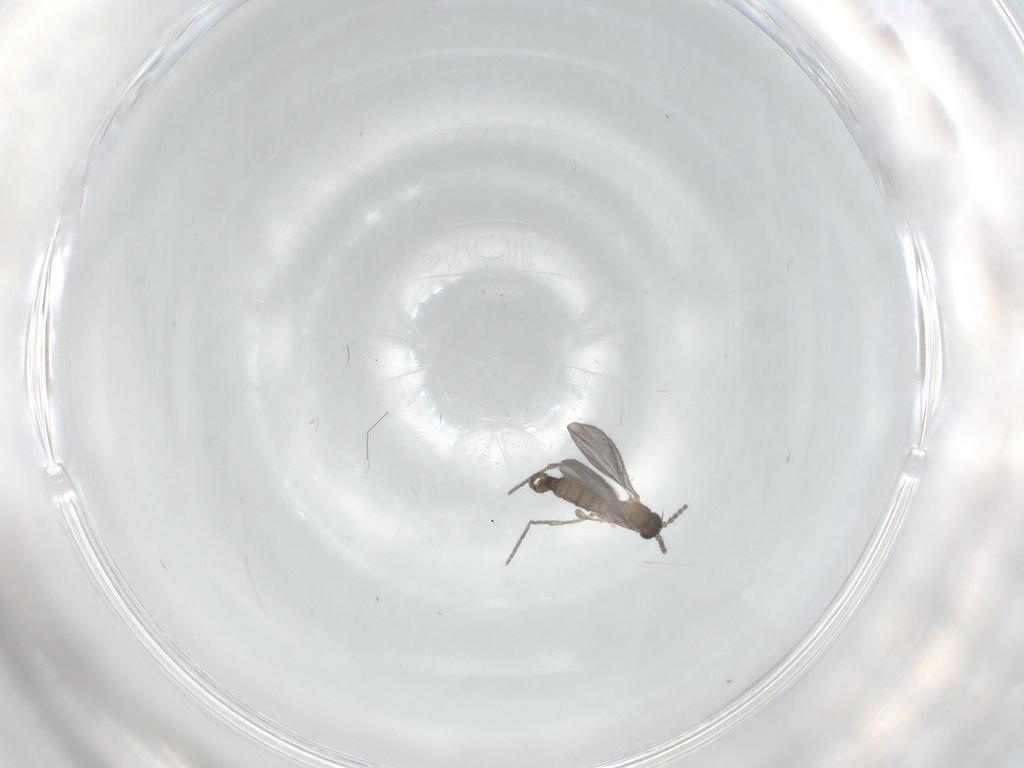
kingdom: Animalia
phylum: Arthropoda
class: Insecta
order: Diptera
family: Sciaridae
